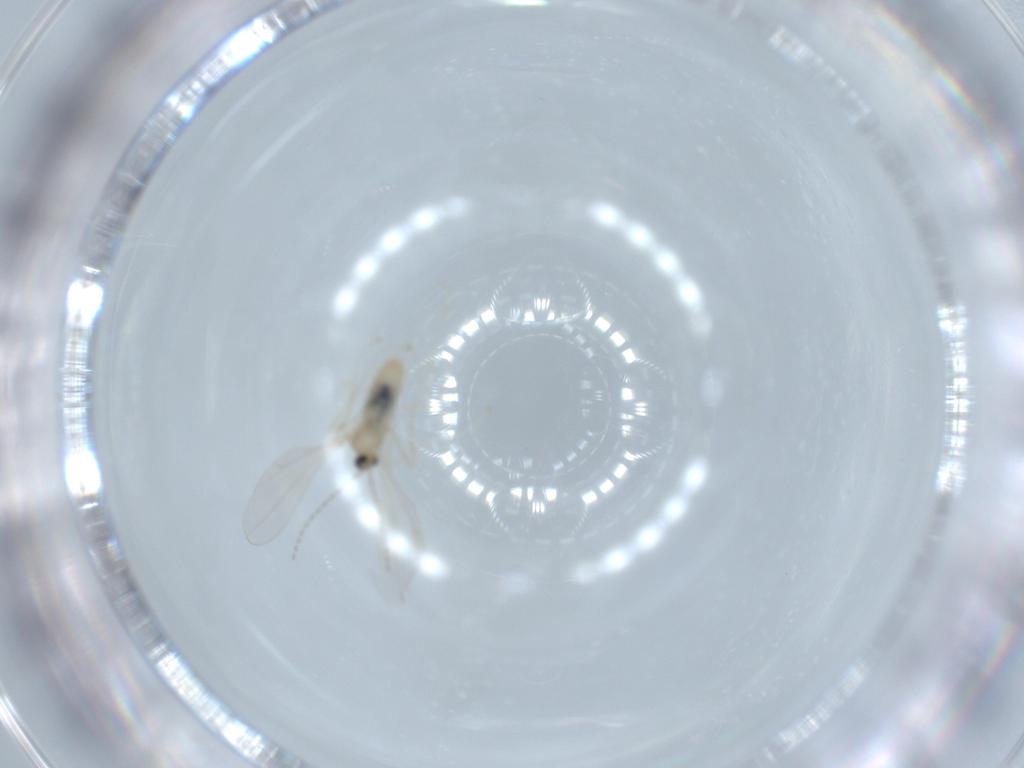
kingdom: Animalia
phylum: Arthropoda
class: Insecta
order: Diptera
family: Cecidomyiidae
